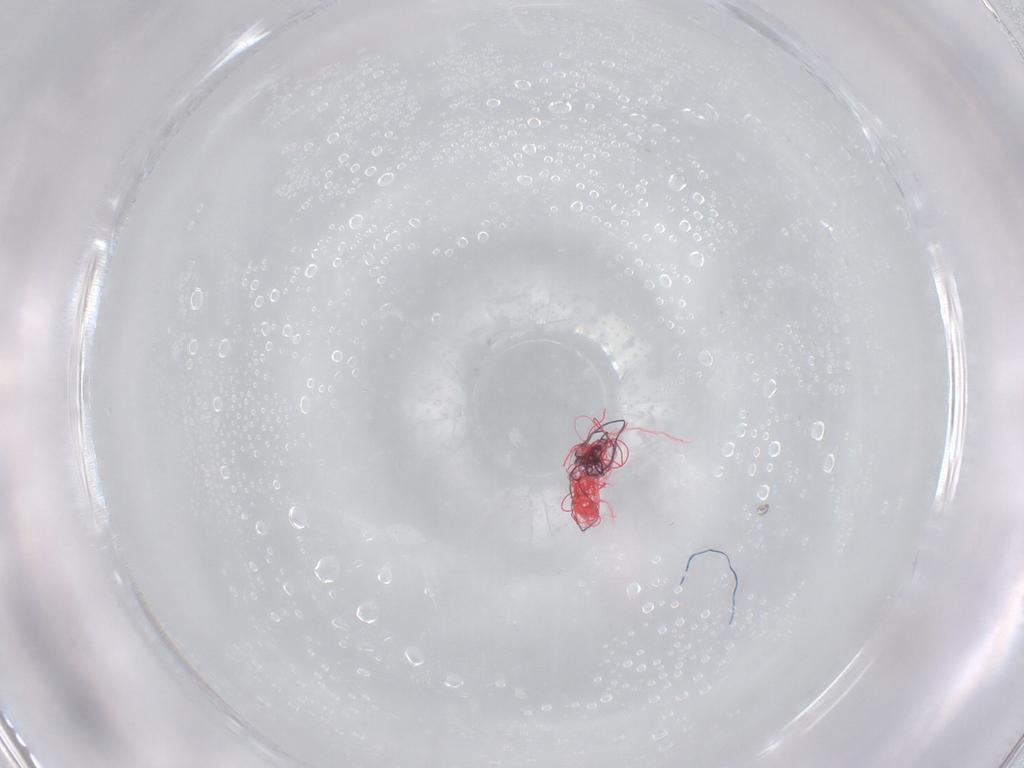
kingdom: Animalia
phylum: Arthropoda
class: Insecta
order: Diptera
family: Sciaridae
